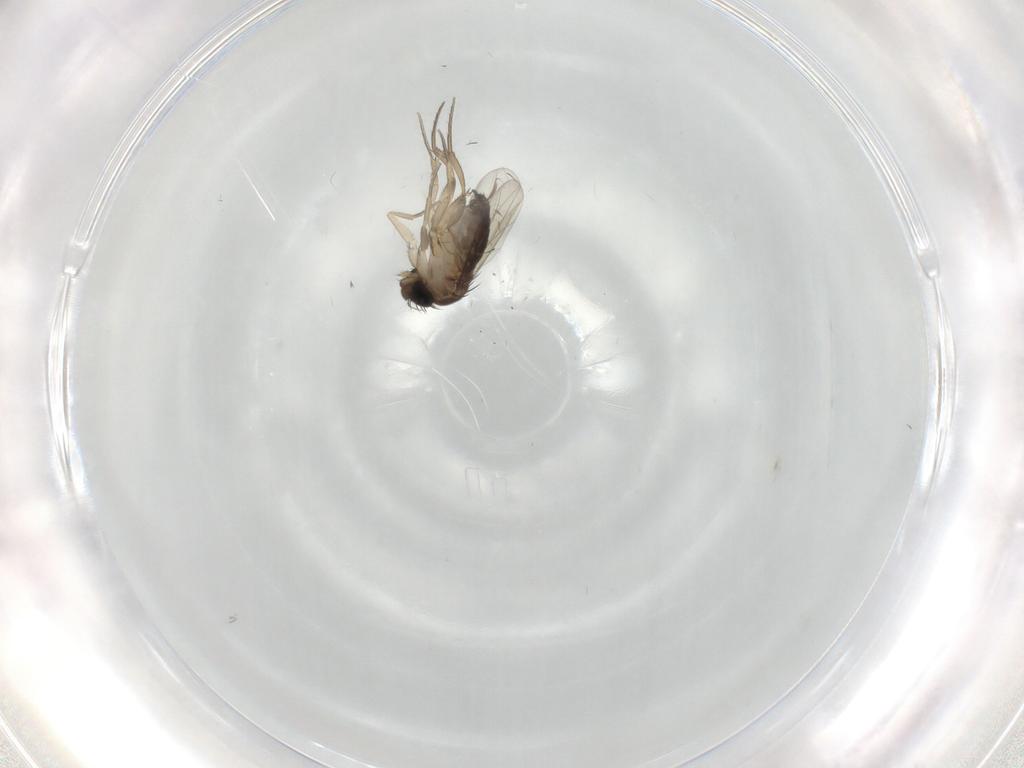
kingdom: Animalia
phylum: Arthropoda
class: Insecta
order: Diptera
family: Phoridae
